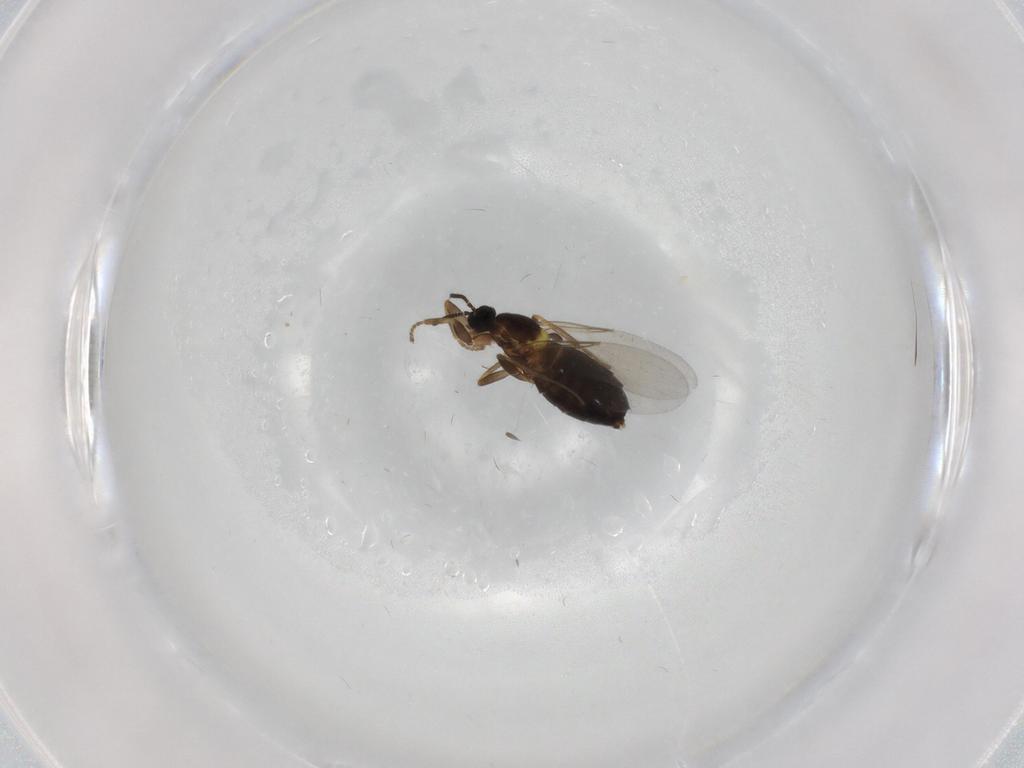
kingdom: Animalia
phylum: Arthropoda
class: Insecta
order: Diptera
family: Scatopsidae
